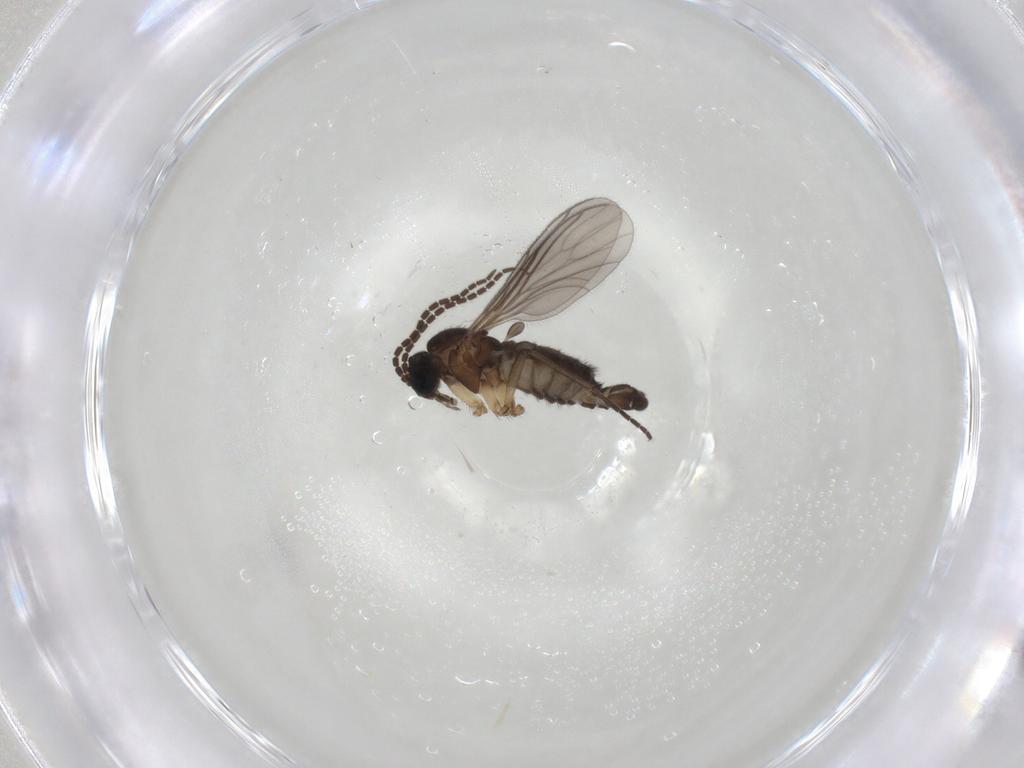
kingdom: Animalia
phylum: Arthropoda
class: Insecta
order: Diptera
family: Sciaridae
